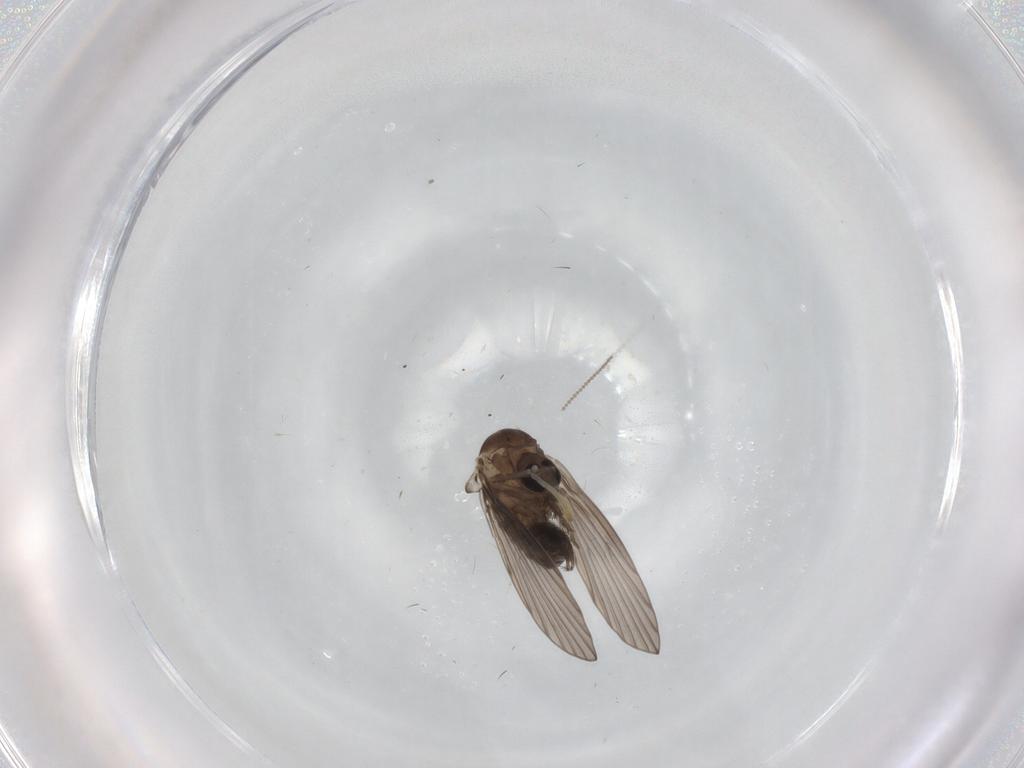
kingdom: Animalia
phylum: Arthropoda
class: Insecta
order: Diptera
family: Psychodidae
